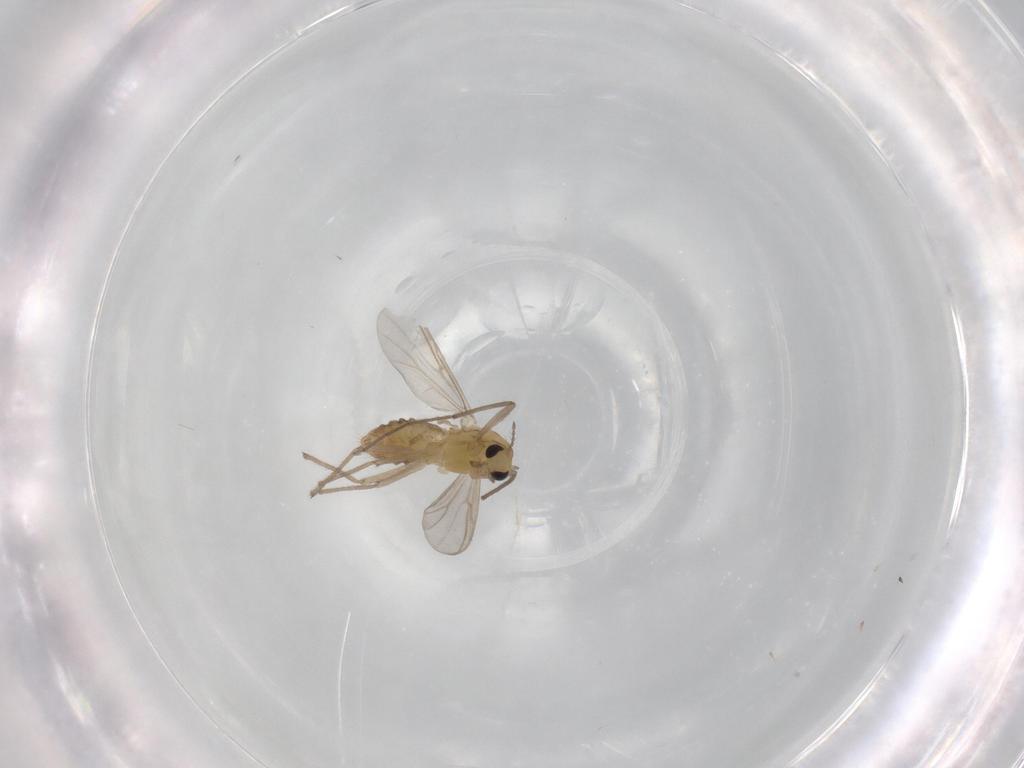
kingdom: Animalia
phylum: Arthropoda
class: Insecta
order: Diptera
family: Chironomidae
